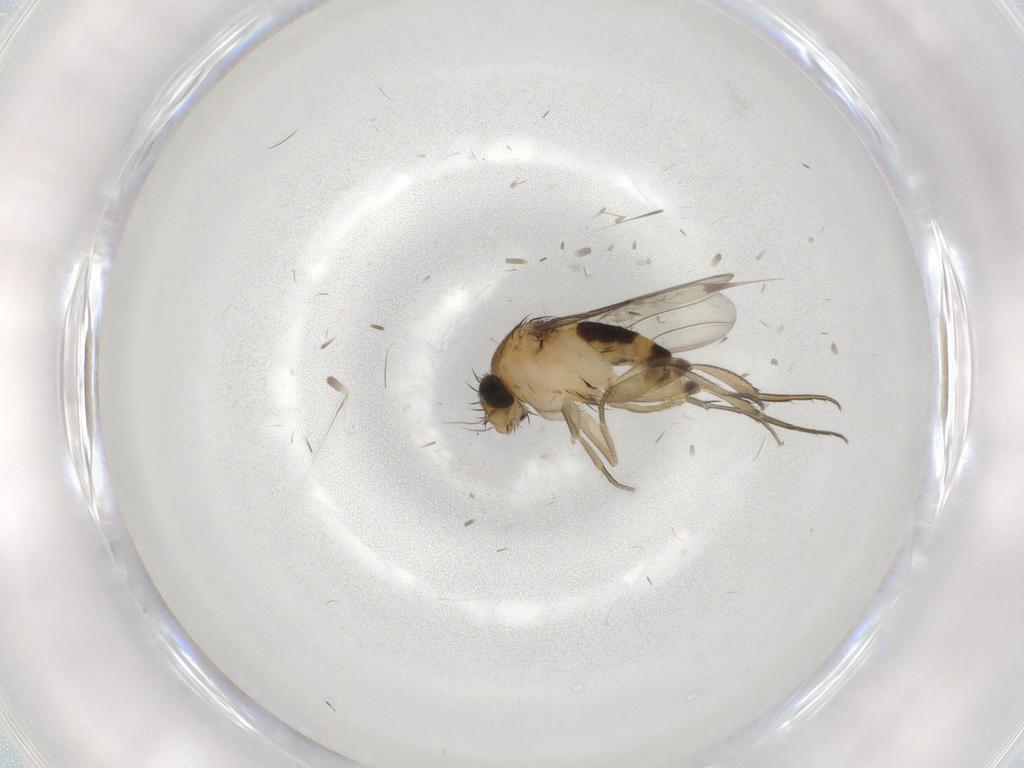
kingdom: Animalia
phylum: Arthropoda
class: Insecta
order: Diptera
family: Phoridae
